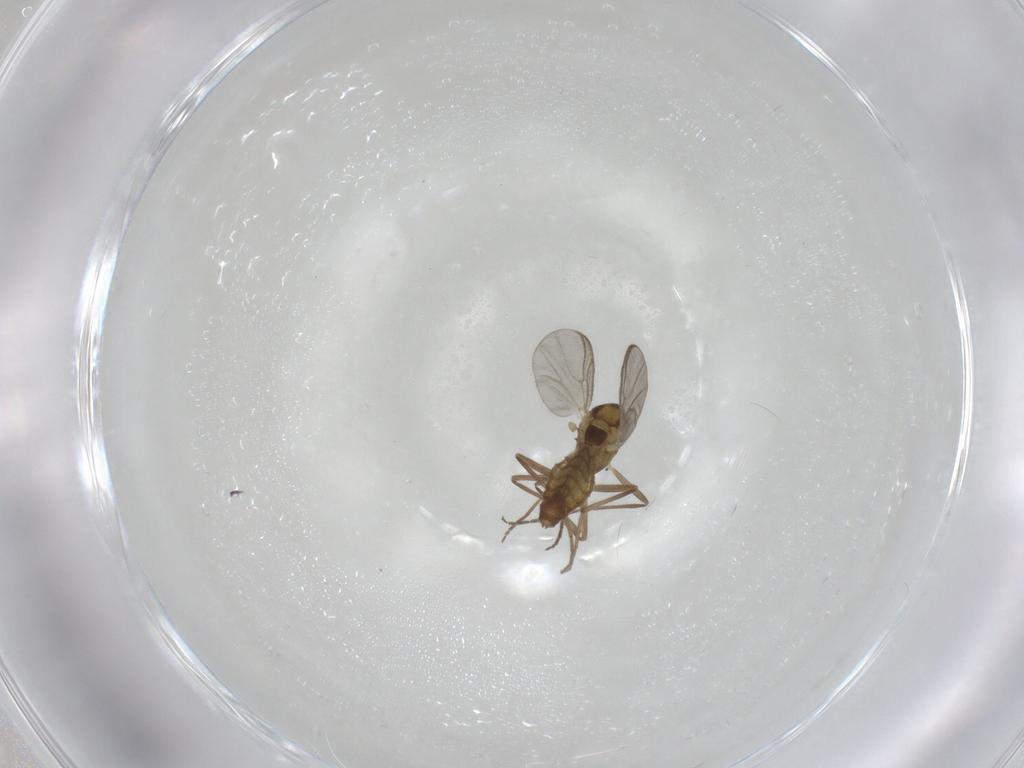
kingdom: Animalia
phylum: Arthropoda
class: Insecta
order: Diptera
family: Chironomidae
